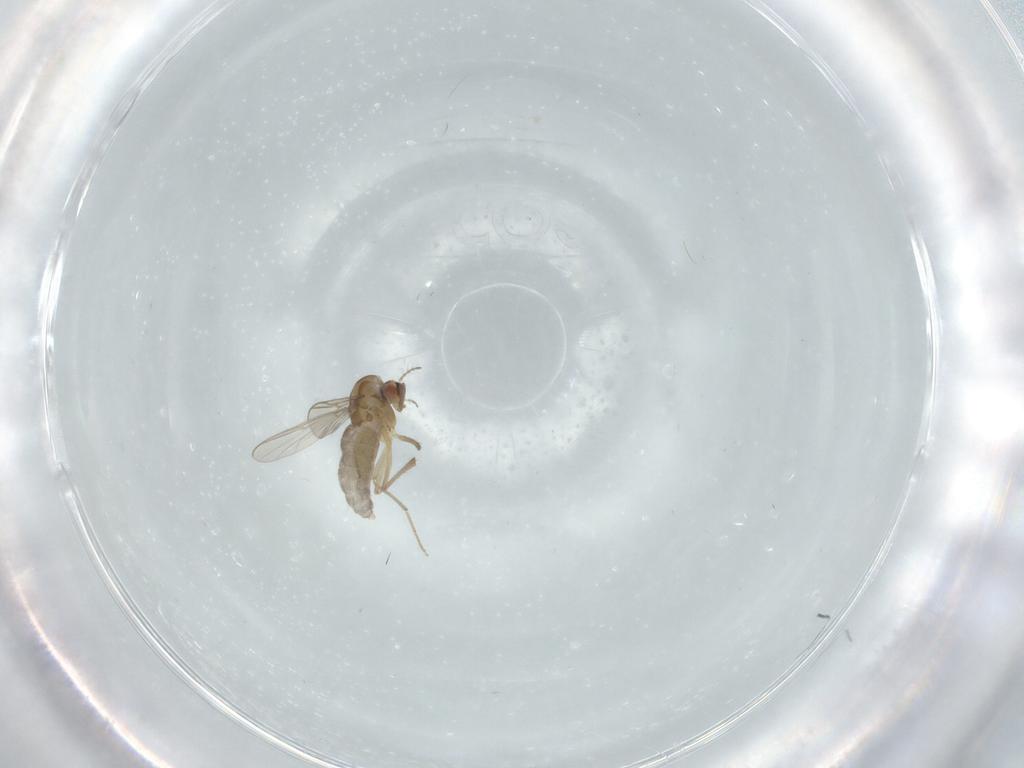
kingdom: Animalia
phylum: Arthropoda
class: Insecta
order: Diptera
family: Chironomidae
